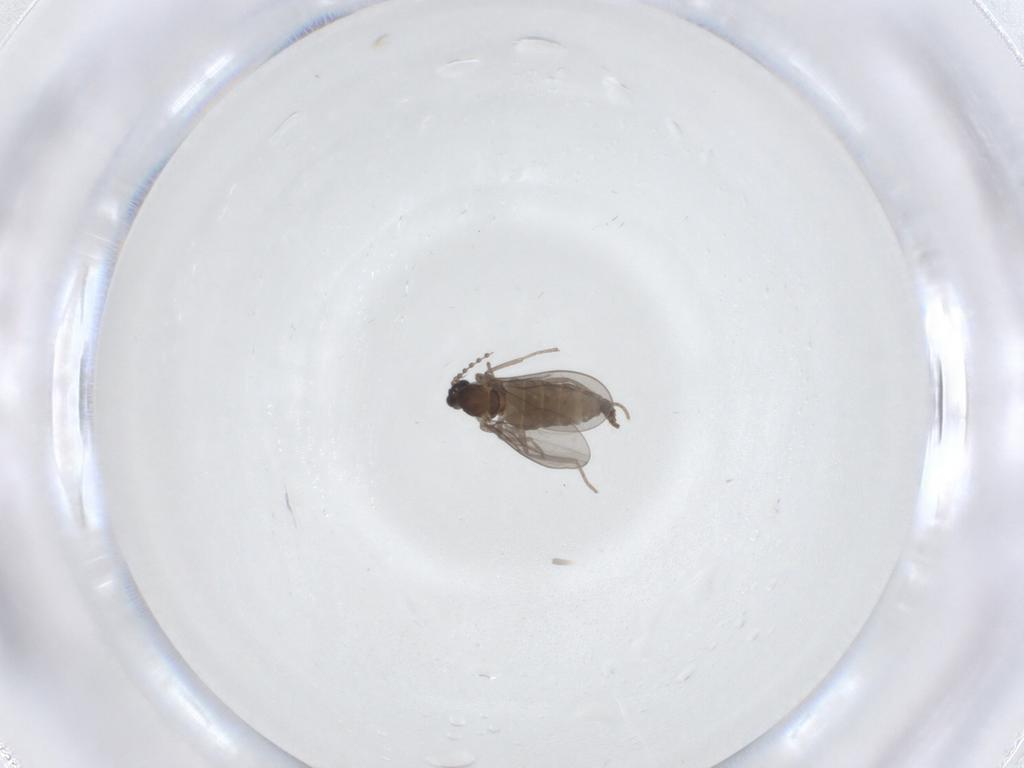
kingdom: Animalia
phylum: Arthropoda
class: Insecta
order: Diptera
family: Cecidomyiidae
